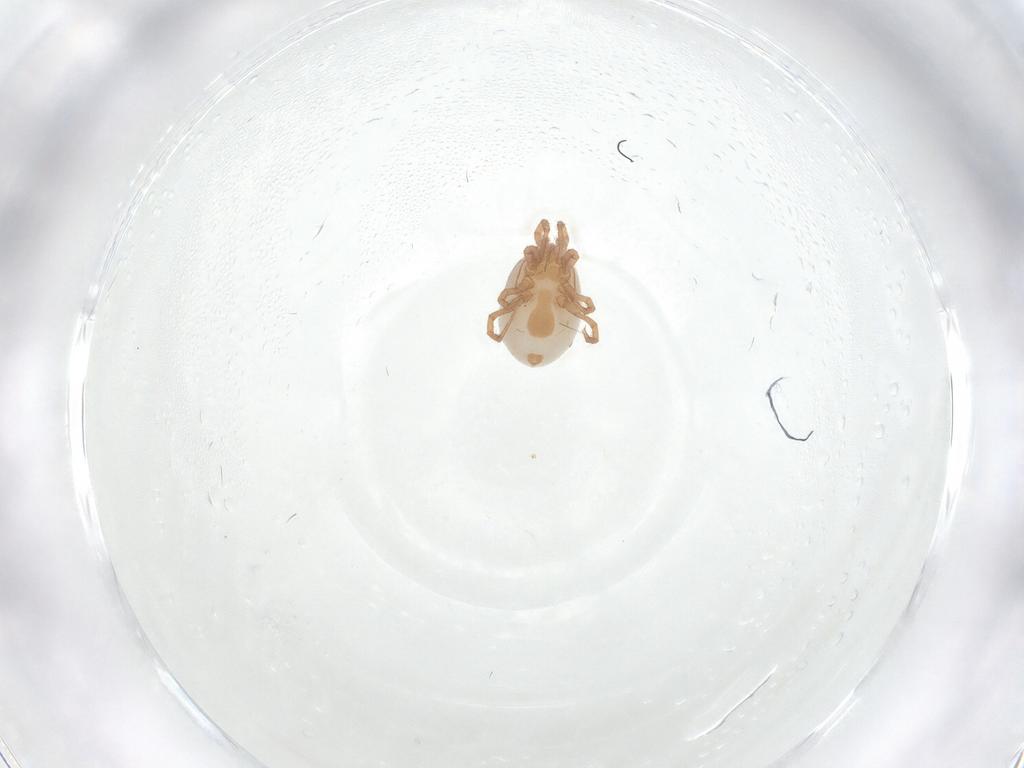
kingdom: Animalia
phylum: Arthropoda
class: Arachnida
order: Mesostigmata
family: Parasitidae
